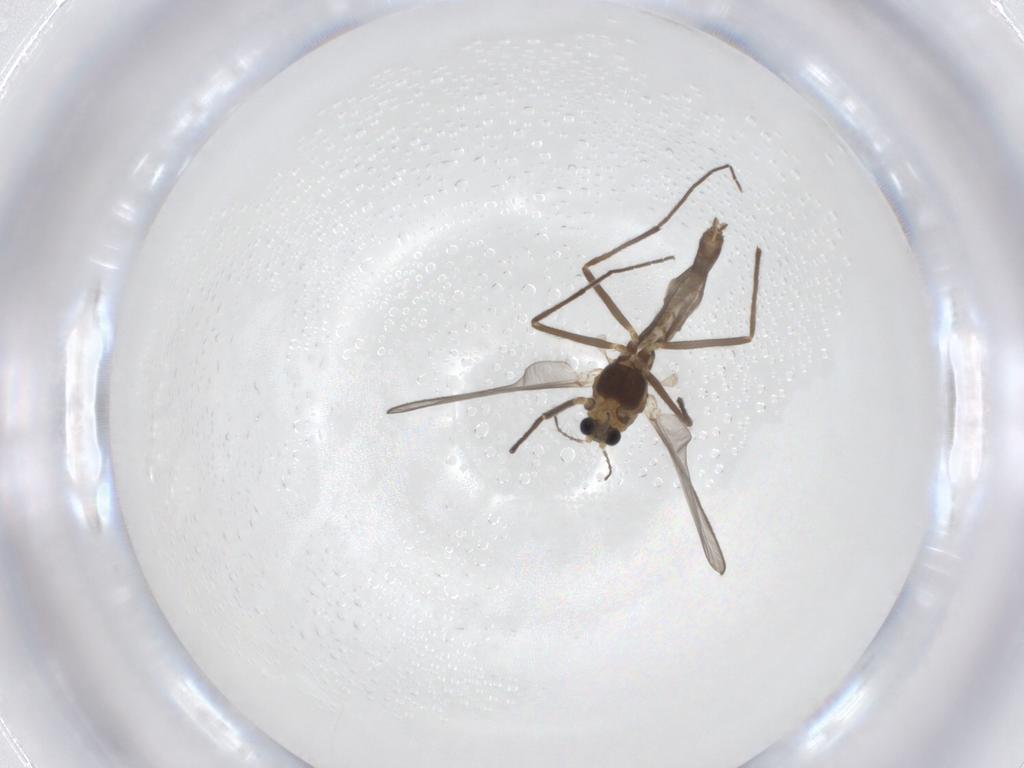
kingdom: Animalia
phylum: Arthropoda
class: Insecta
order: Diptera
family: Chironomidae
